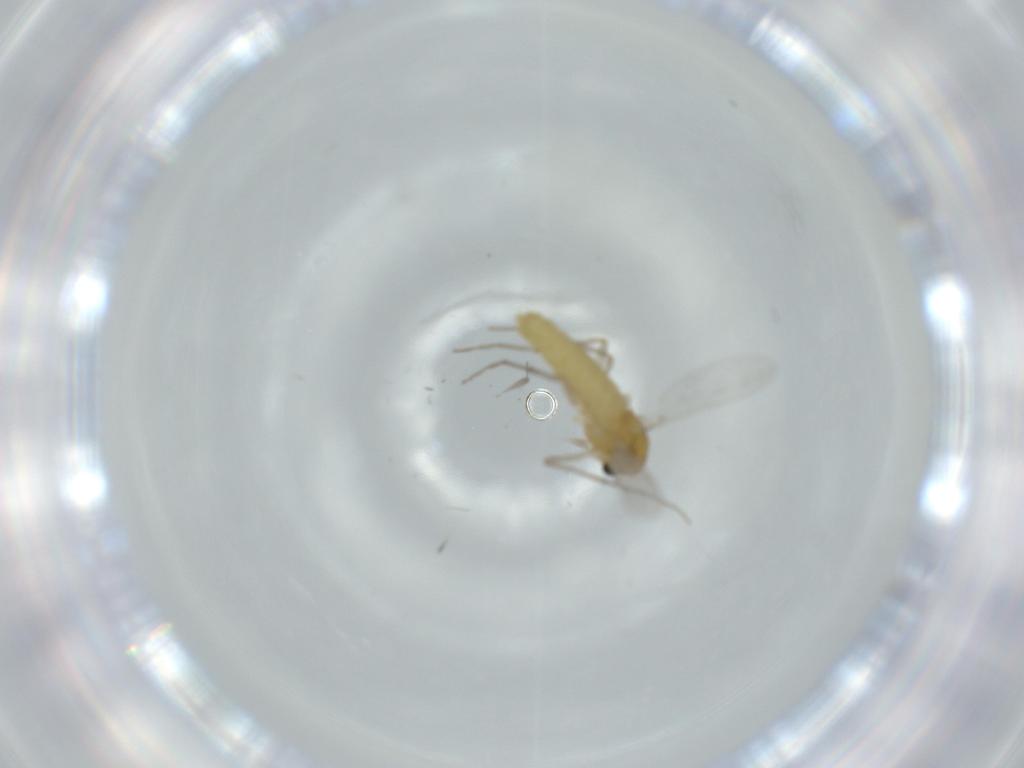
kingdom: Animalia
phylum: Arthropoda
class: Insecta
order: Diptera
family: Chironomidae
